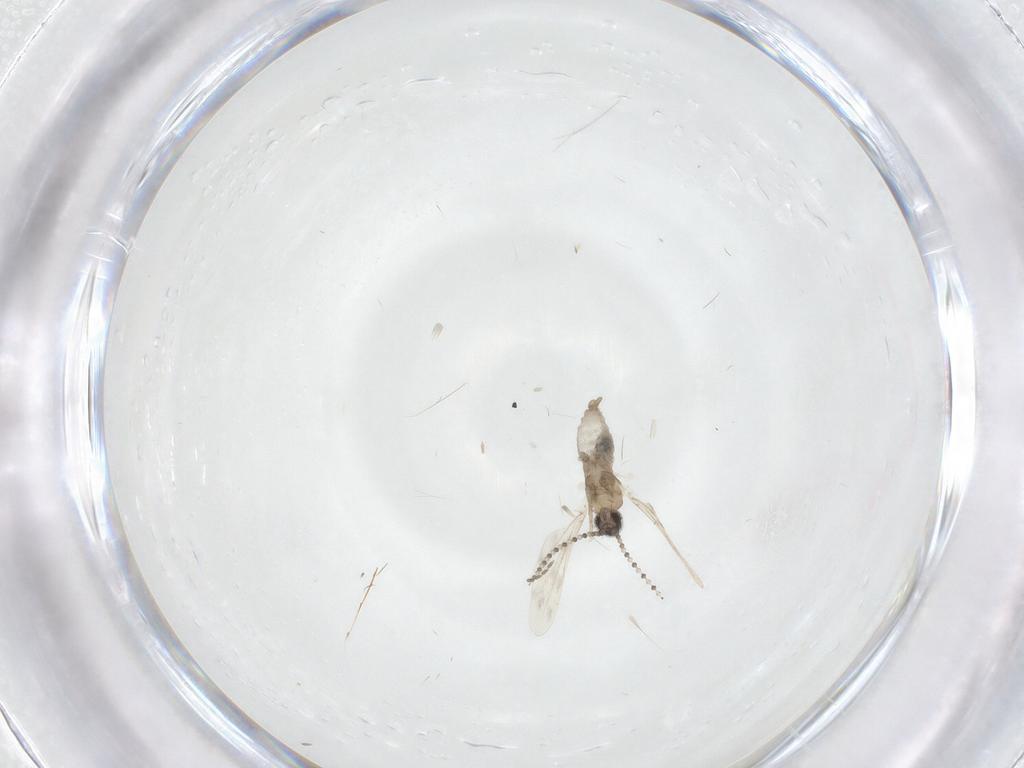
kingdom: Animalia
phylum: Arthropoda
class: Insecta
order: Diptera
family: Cecidomyiidae
